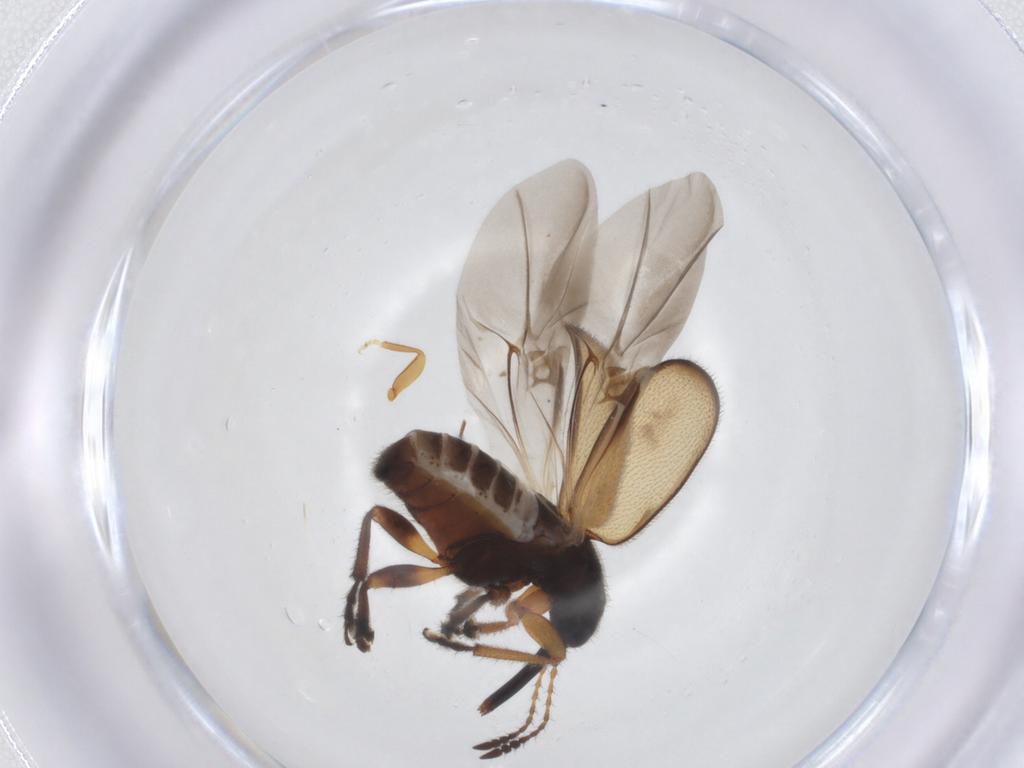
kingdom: Animalia
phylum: Arthropoda
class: Insecta
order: Coleoptera
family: Attelabidae
